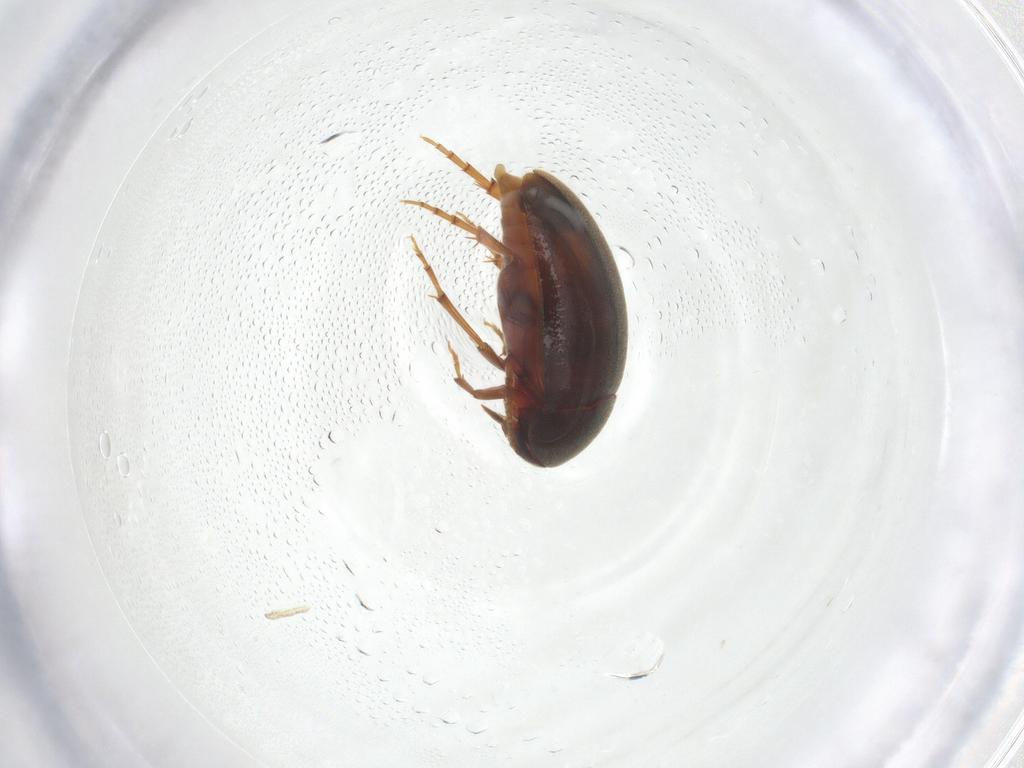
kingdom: Animalia
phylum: Arthropoda
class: Insecta
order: Coleoptera
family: Scraptiidae
